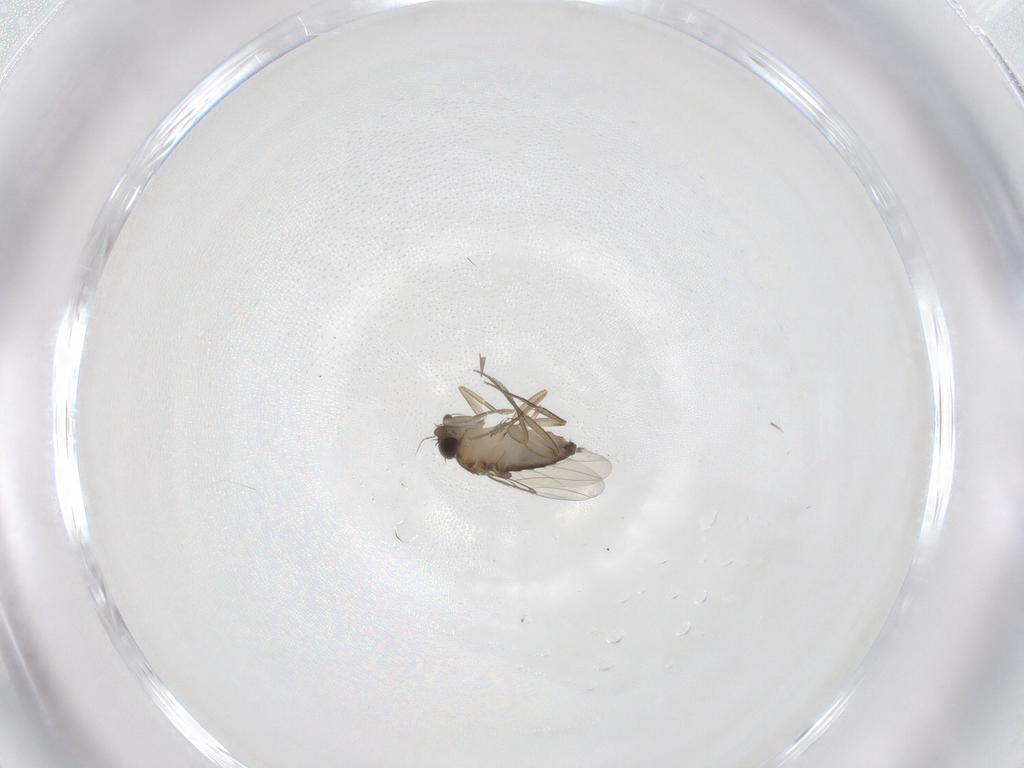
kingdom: Animalia
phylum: Arthropoda
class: Insecta
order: Diptera
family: Phoridae
